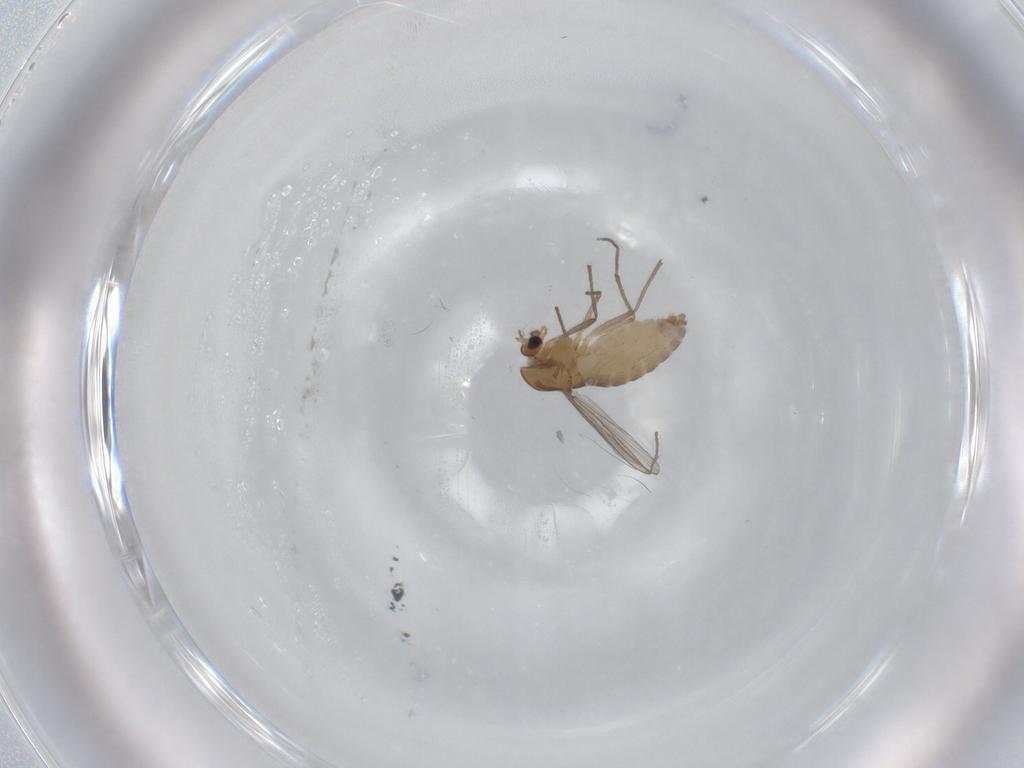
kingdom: Animalia
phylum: Arthropoda
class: Insecta
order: Diptera
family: Chironomidae
